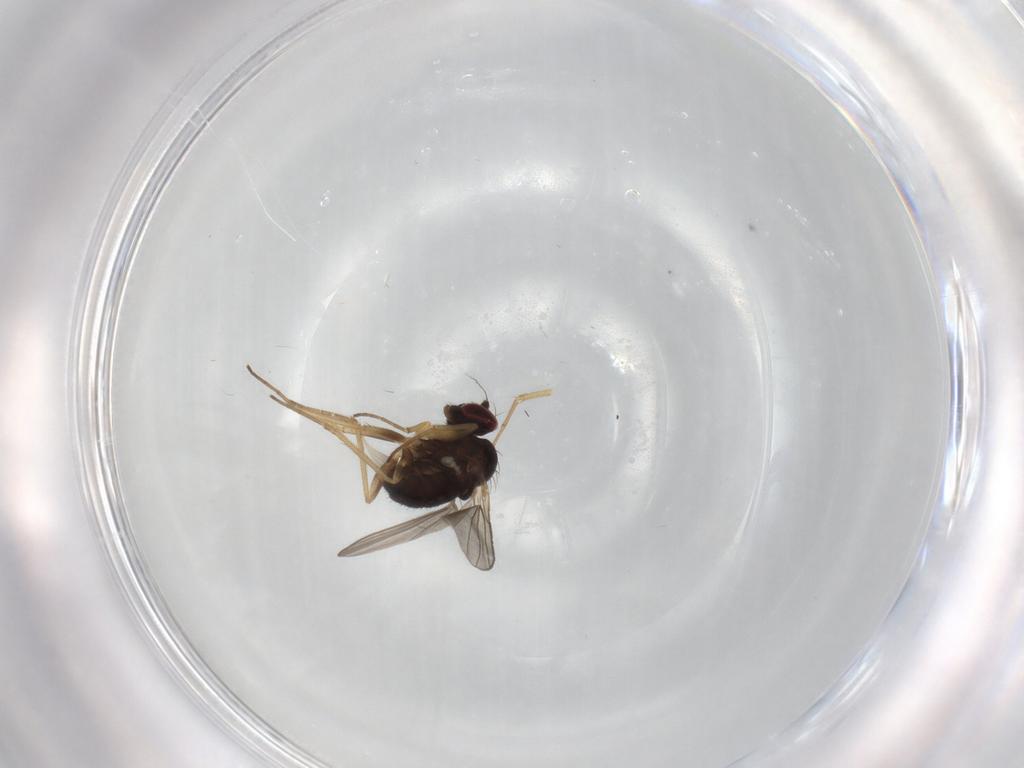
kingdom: Animalia
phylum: Arthropoda
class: Insecta
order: Diptera
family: Dolichopodidae
